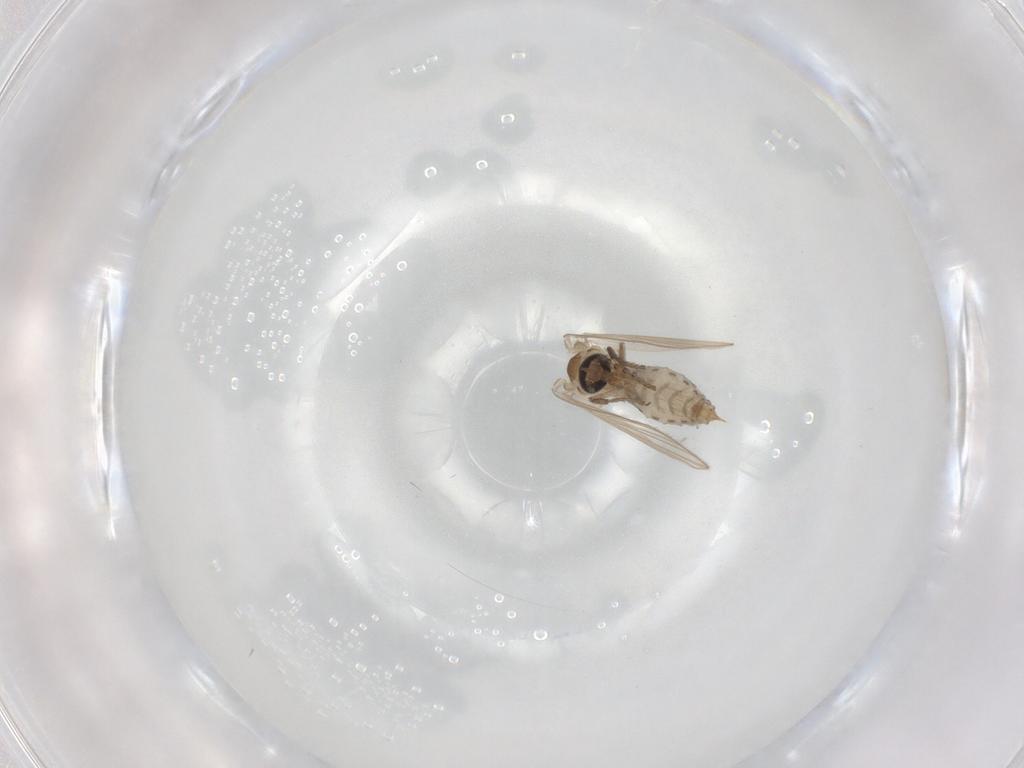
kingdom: Animalia
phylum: Arthropoda
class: Insecta
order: Diptera
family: Psychodidae
